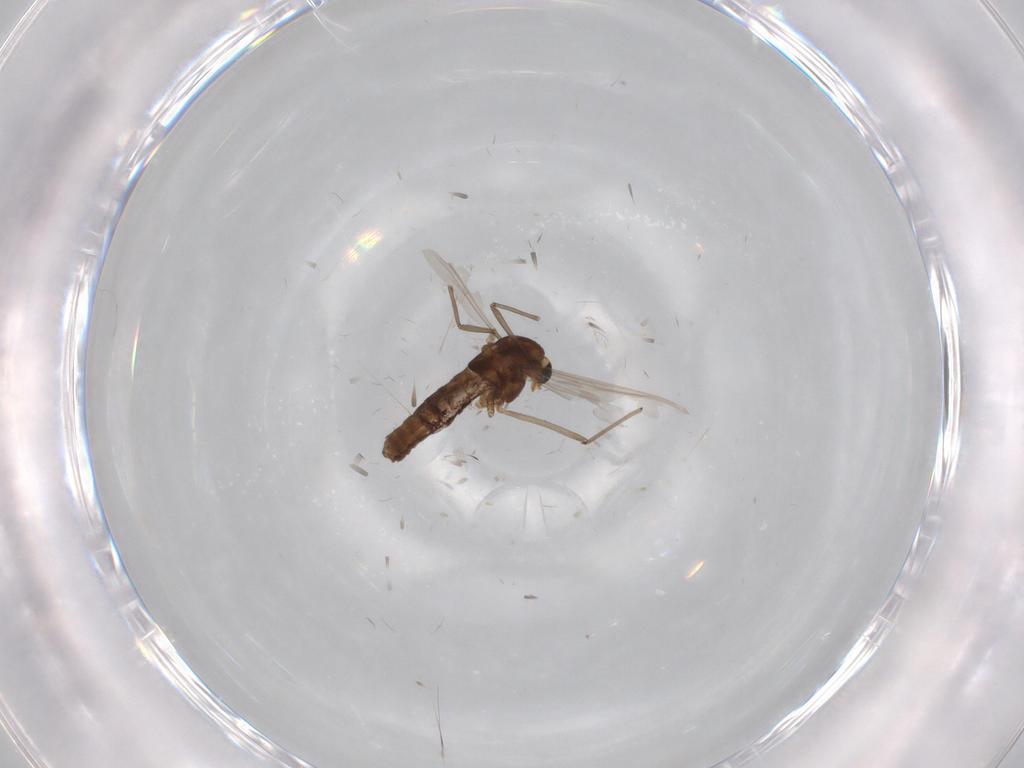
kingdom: Animalia
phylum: Arthropoda
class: Insecta
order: Diptera
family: Chironomidae
